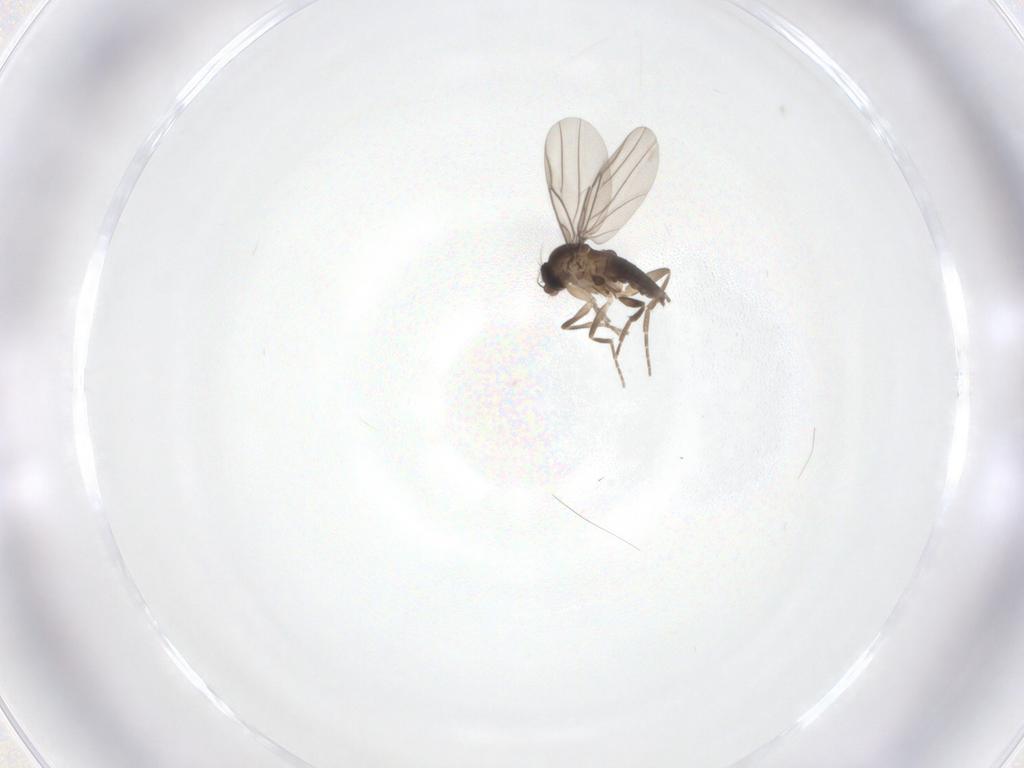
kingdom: Animalia
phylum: Arthropoda
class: Insecta
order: Diptera
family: Phoridae
